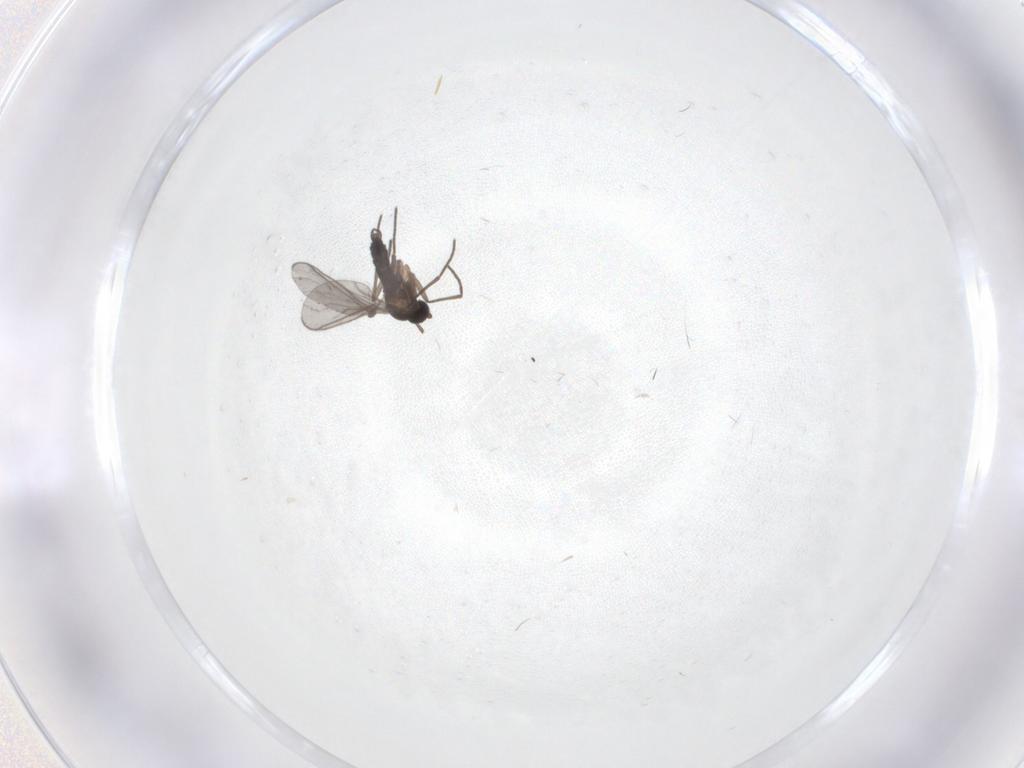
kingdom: Animalia
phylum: Arthropoda
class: Insecta
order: Diptera
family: Sciaridae
